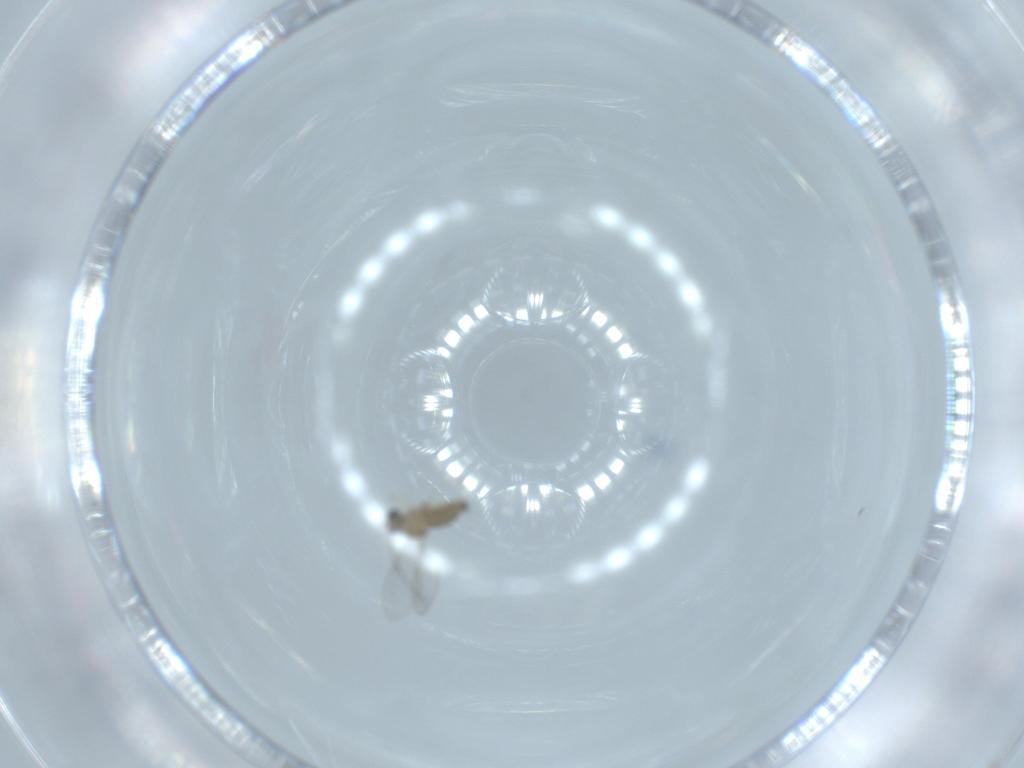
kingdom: Animalia
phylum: Arthropoda
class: Insecta
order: Diptera
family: Cecidomyiidae
